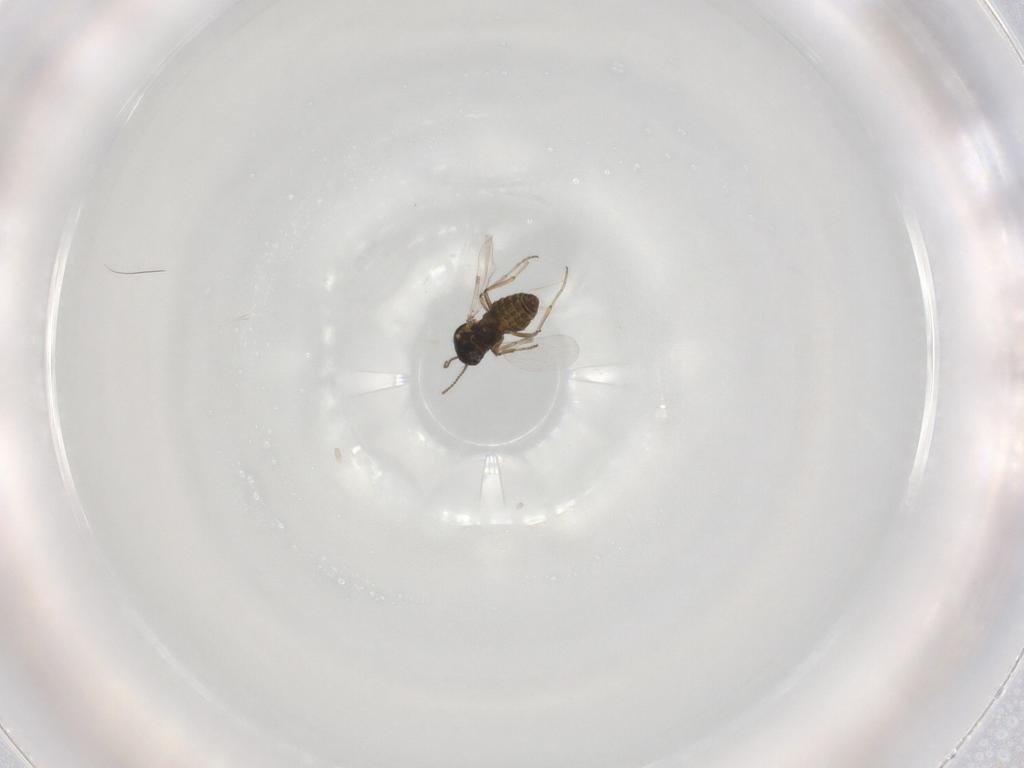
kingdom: Animalia
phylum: Arthropoda
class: Insecta
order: Diptera
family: Ceratopogonidae
